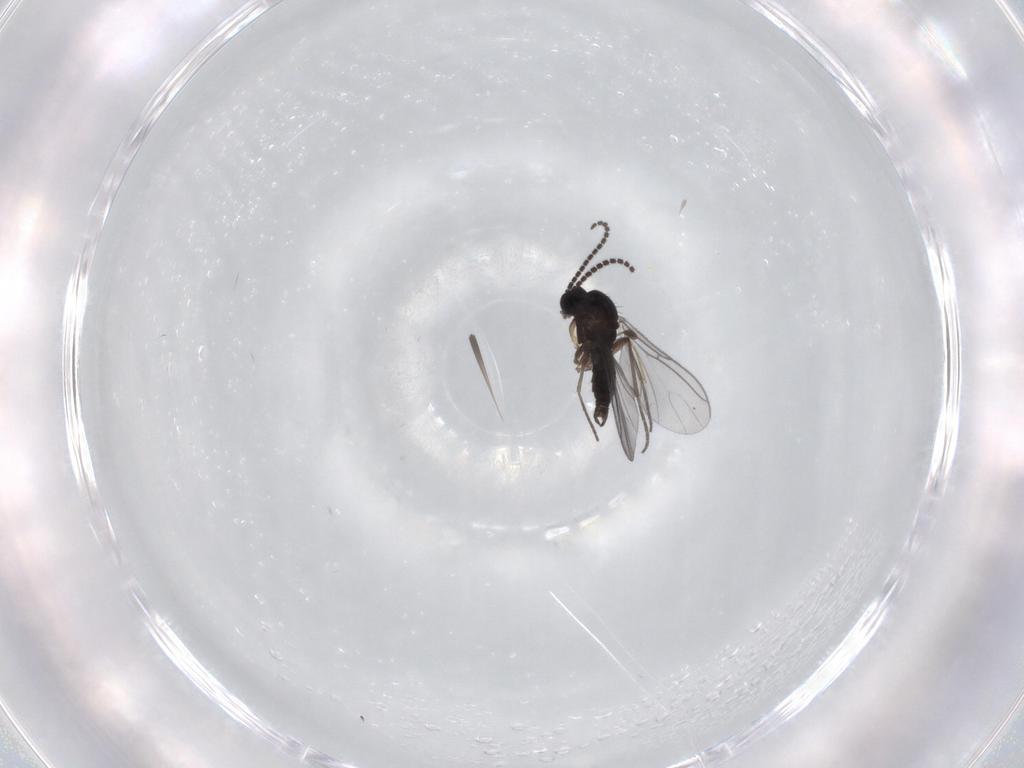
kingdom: Animalia
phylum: Arthropoda
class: Insecta
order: Diptera
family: Sciaridae
